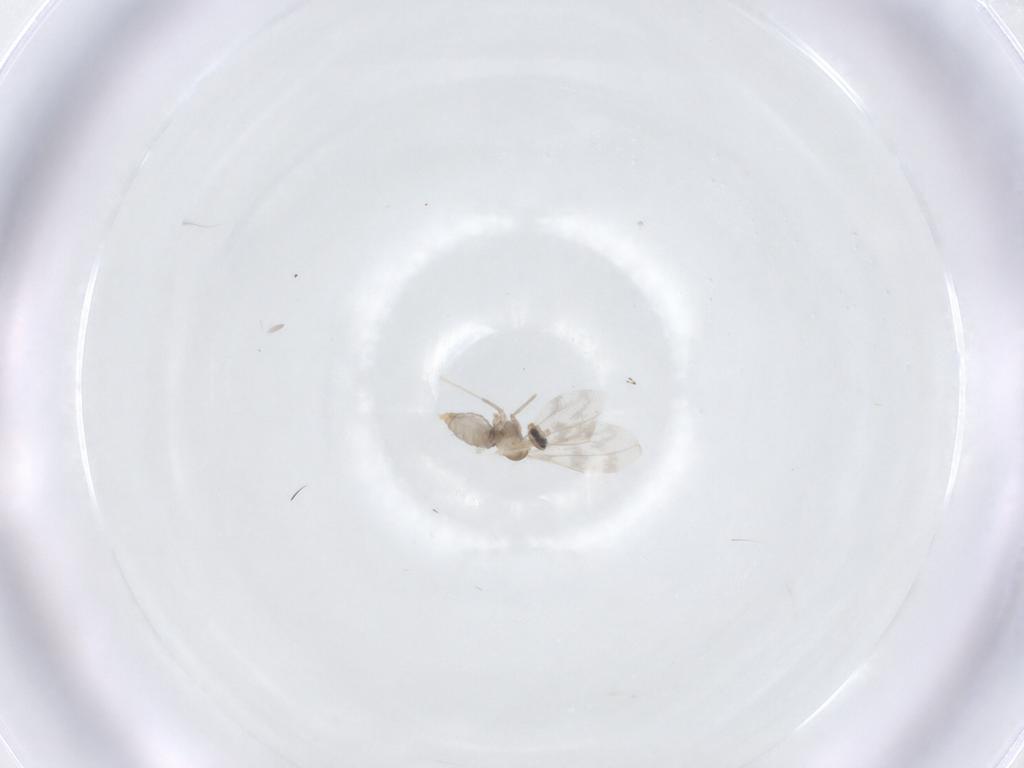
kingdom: Animalia
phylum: Arthropoda
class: Insecta
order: Diptera
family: Cecidomyiidae
